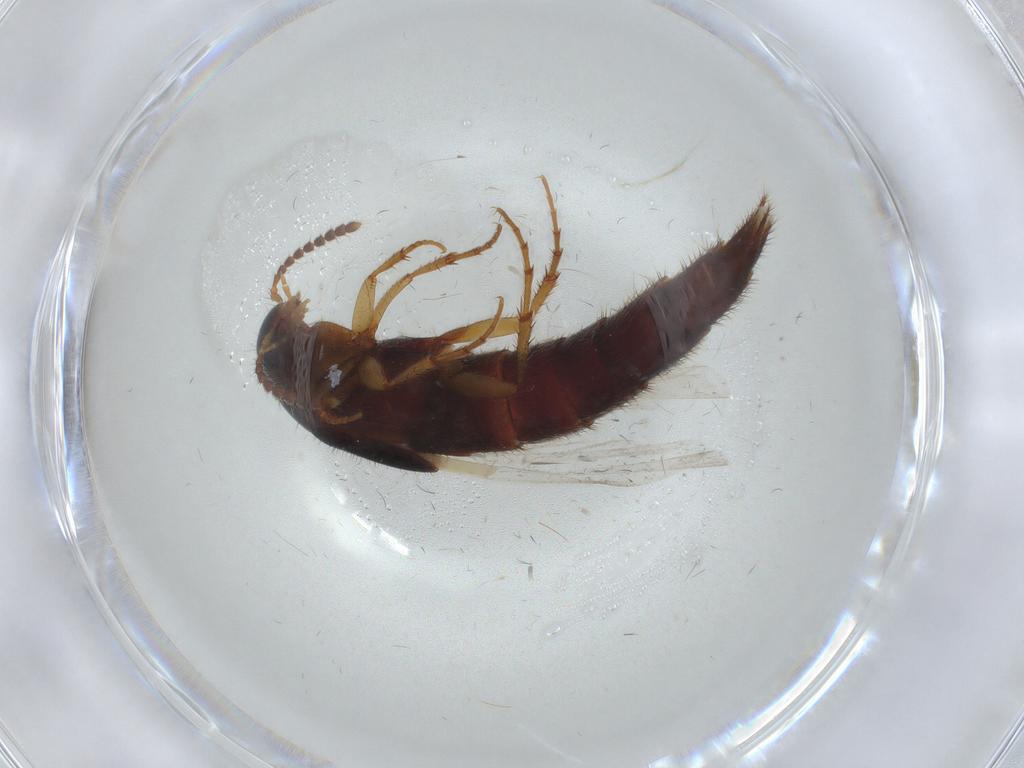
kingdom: Animalia
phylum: Arthropoda
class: Insecta
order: Coleoptera
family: Staphylinidae
